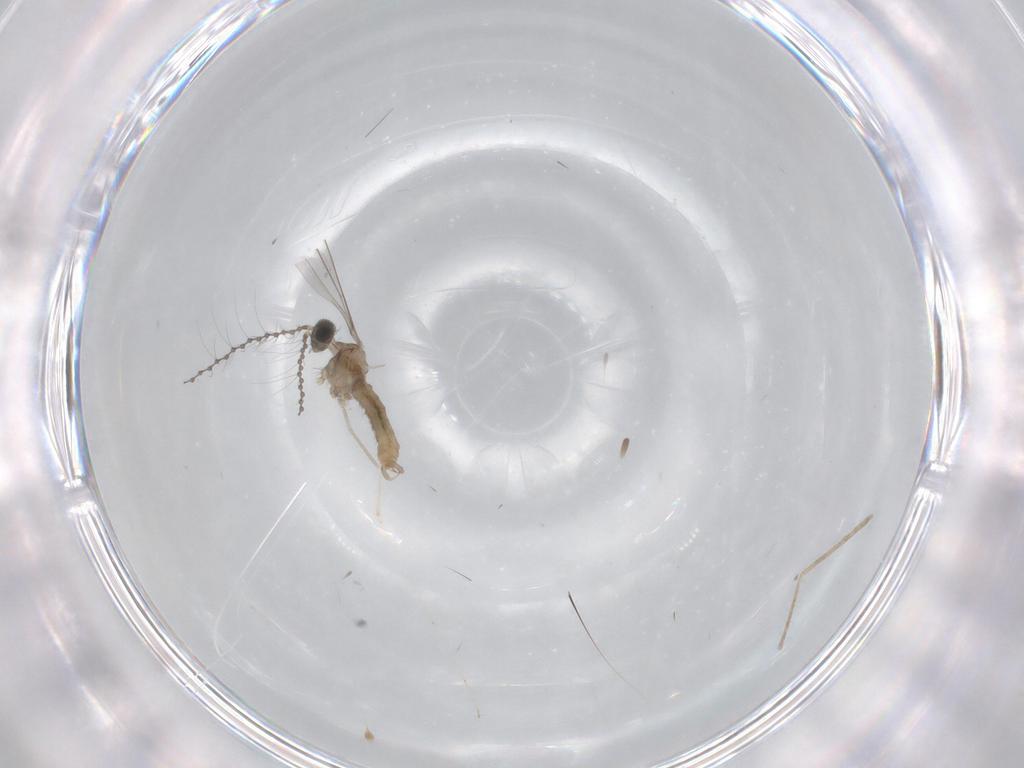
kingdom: Animalia
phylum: Arthropoda
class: Insecta
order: Diptera
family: Cecidomyiidae
